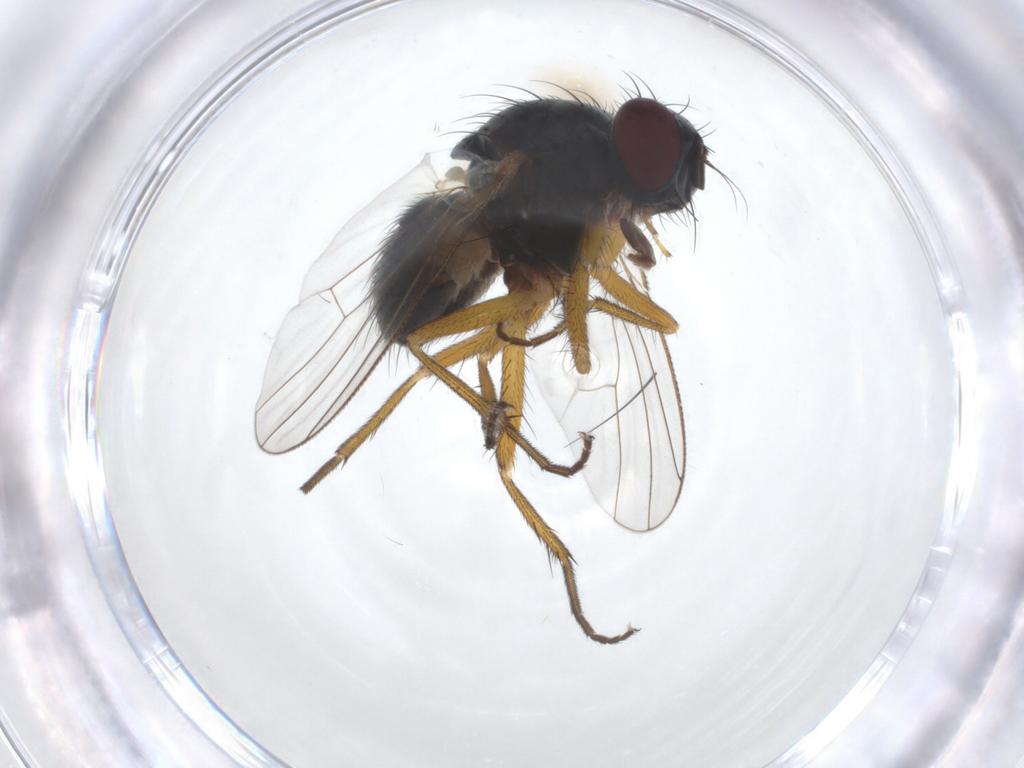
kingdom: Animalia
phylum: Arthropoda
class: Insecta
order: Diptera
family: Muscidae
